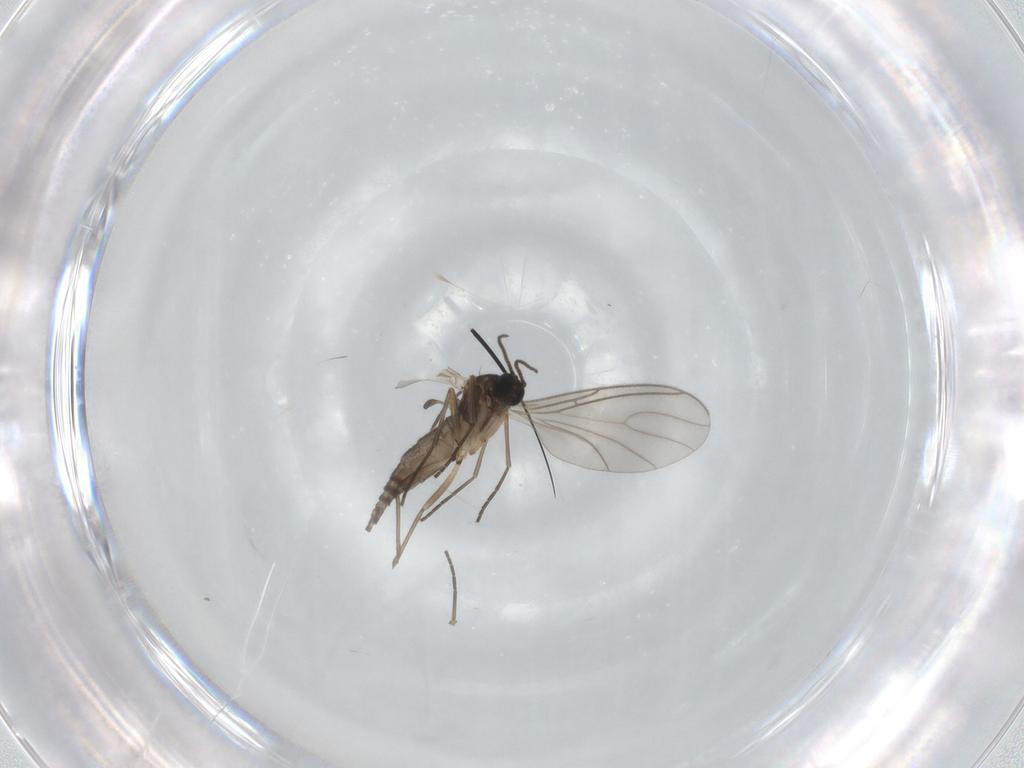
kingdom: Animalia
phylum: Arthropoda
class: Insecta
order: Diptera
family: Sciaridae
